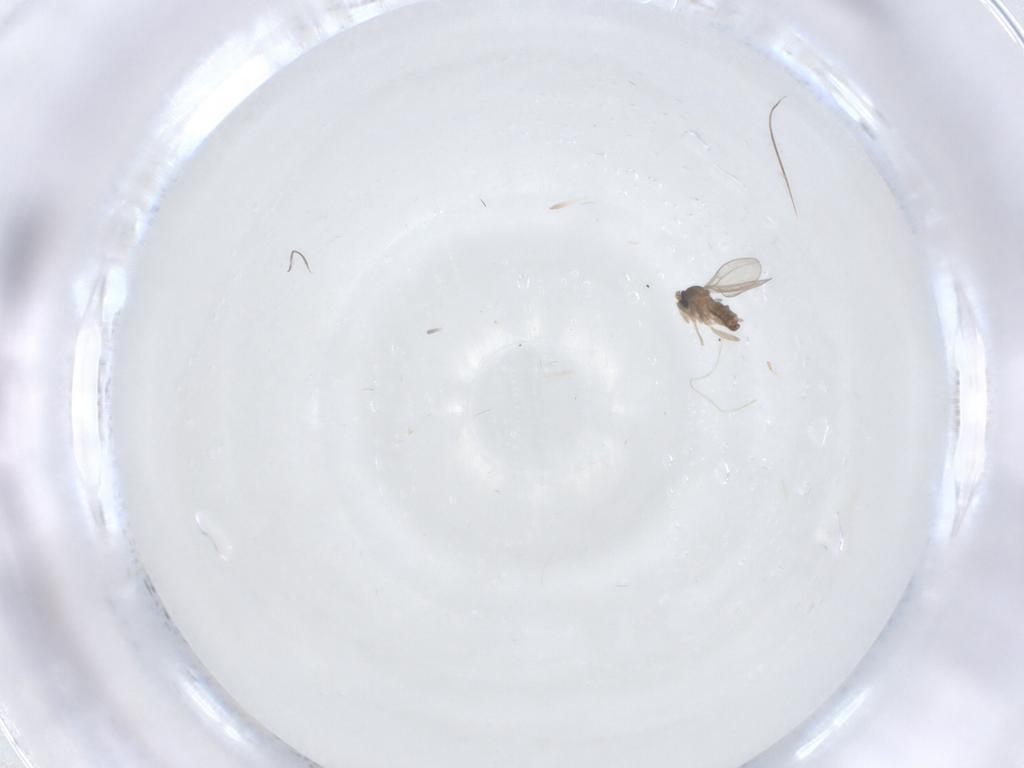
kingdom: Animalia
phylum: Arthropoda
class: Insecta
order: Diptera
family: Cecidomyiidae
